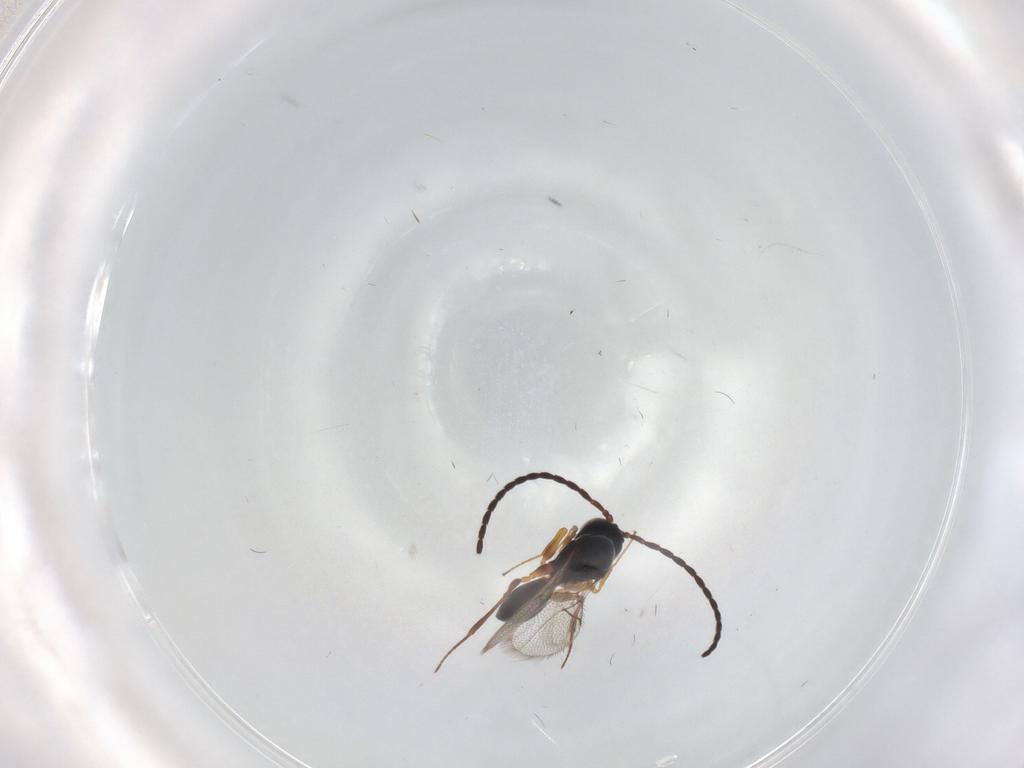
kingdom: Animalia
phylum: Arthropoda
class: Insecta
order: Hymenoptera
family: Figitidae
